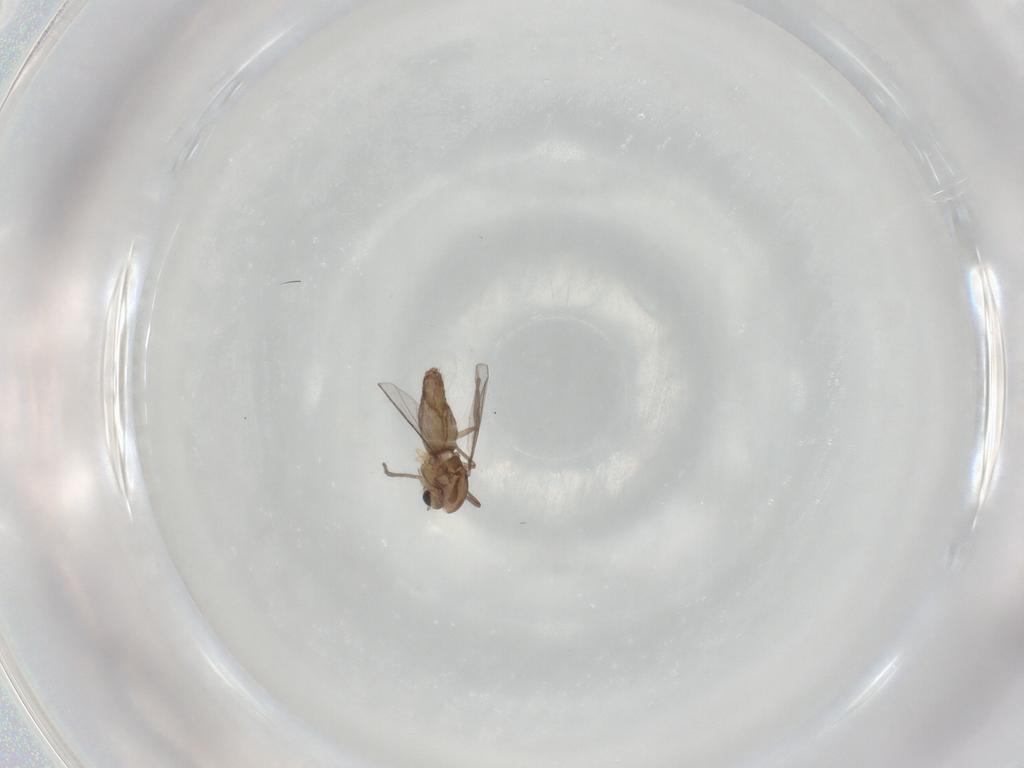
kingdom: Animalia
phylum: Arthropoda
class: Insecta
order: Diptera
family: Chironomidae
